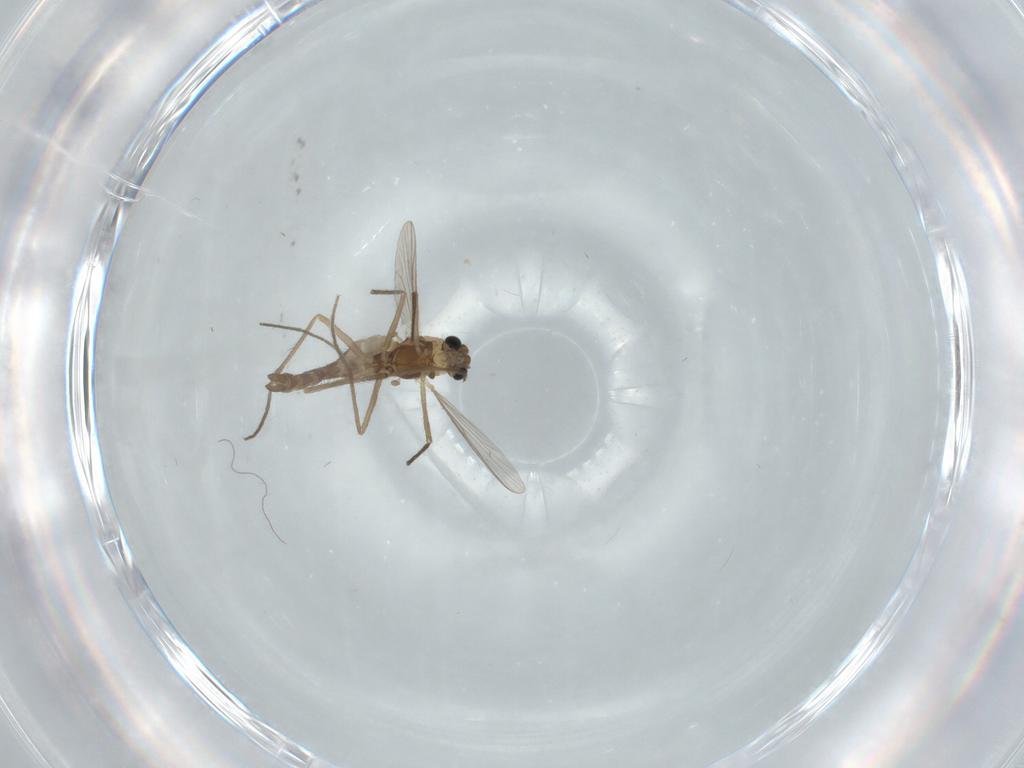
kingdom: Animalia
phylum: Arthropoda
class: Insecta
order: Diptera
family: Chironomidae
